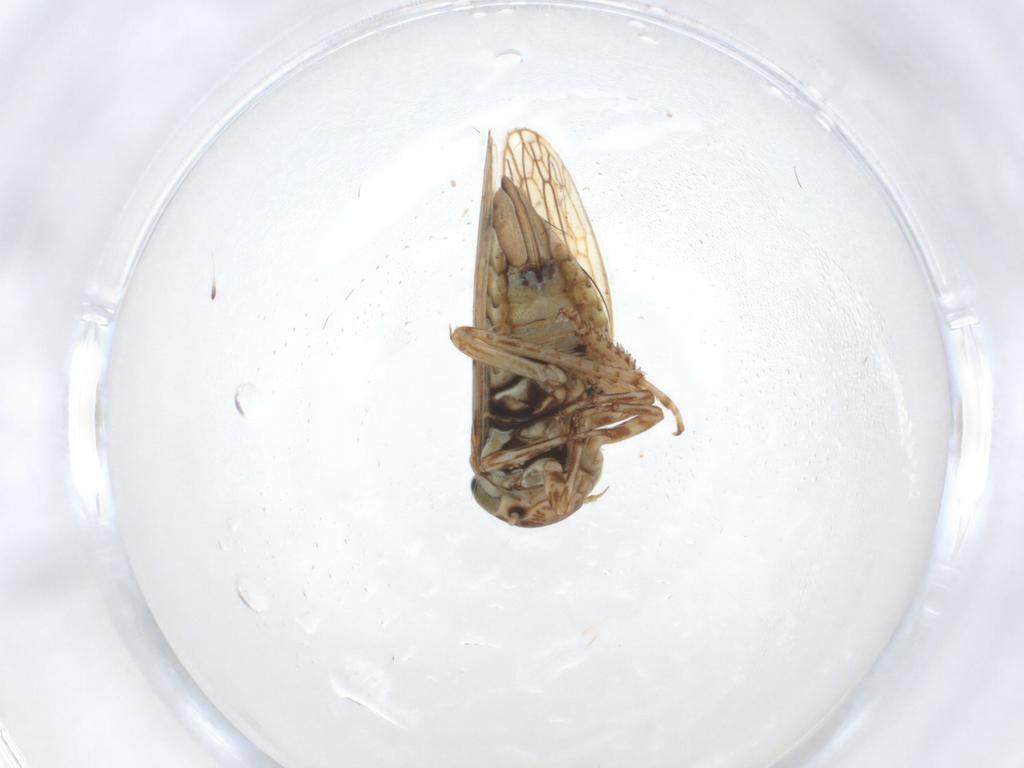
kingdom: Animalia
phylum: Arthropoda
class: Insecta
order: Hemiptera
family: Cicadellidae
